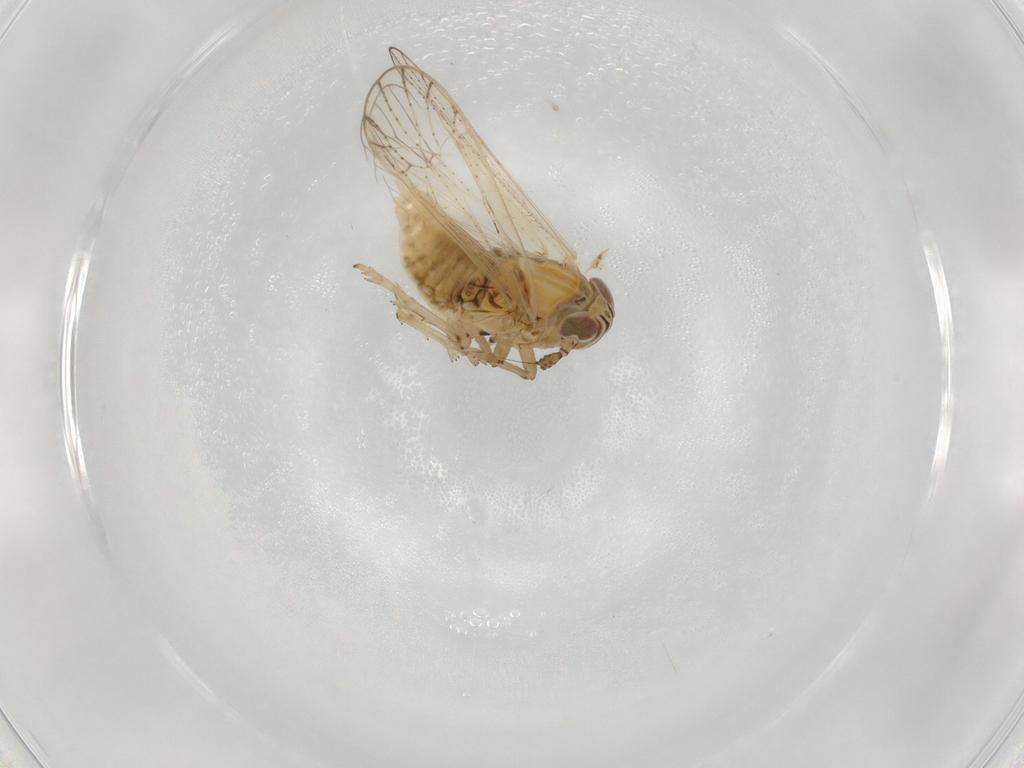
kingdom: Animalia
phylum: Arthropoda
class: Insecta
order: Hemiptera
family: Delphacidae
